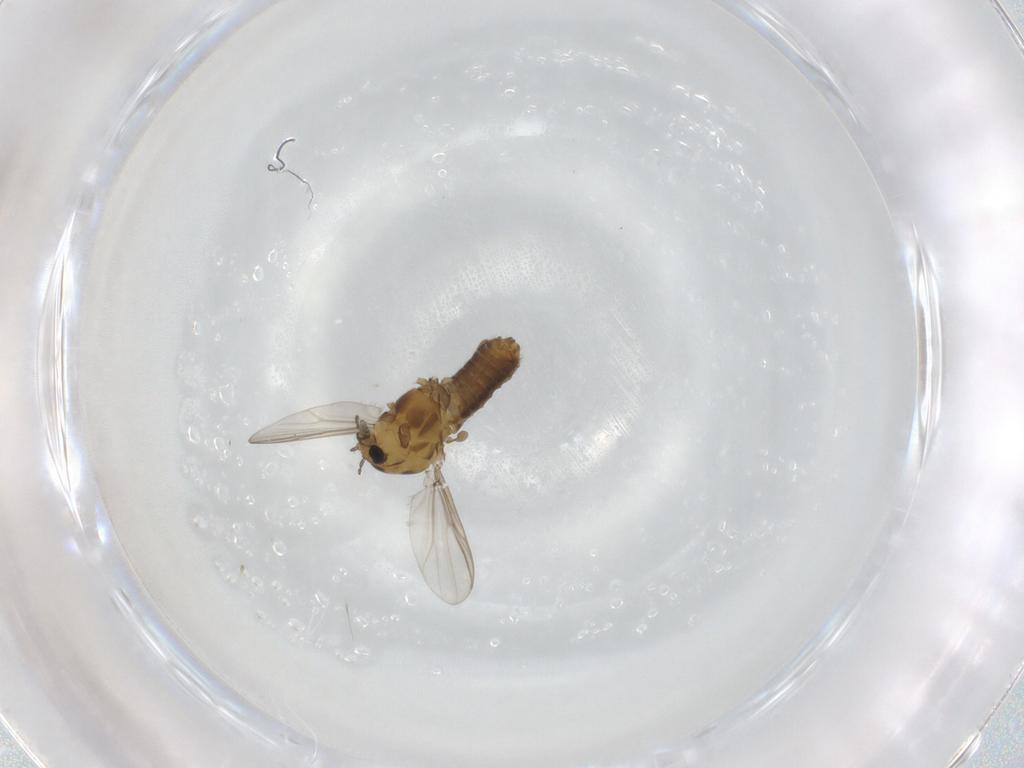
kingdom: Animalia
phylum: Arthropoda
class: Insecta
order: Diptera
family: Chironomidae
